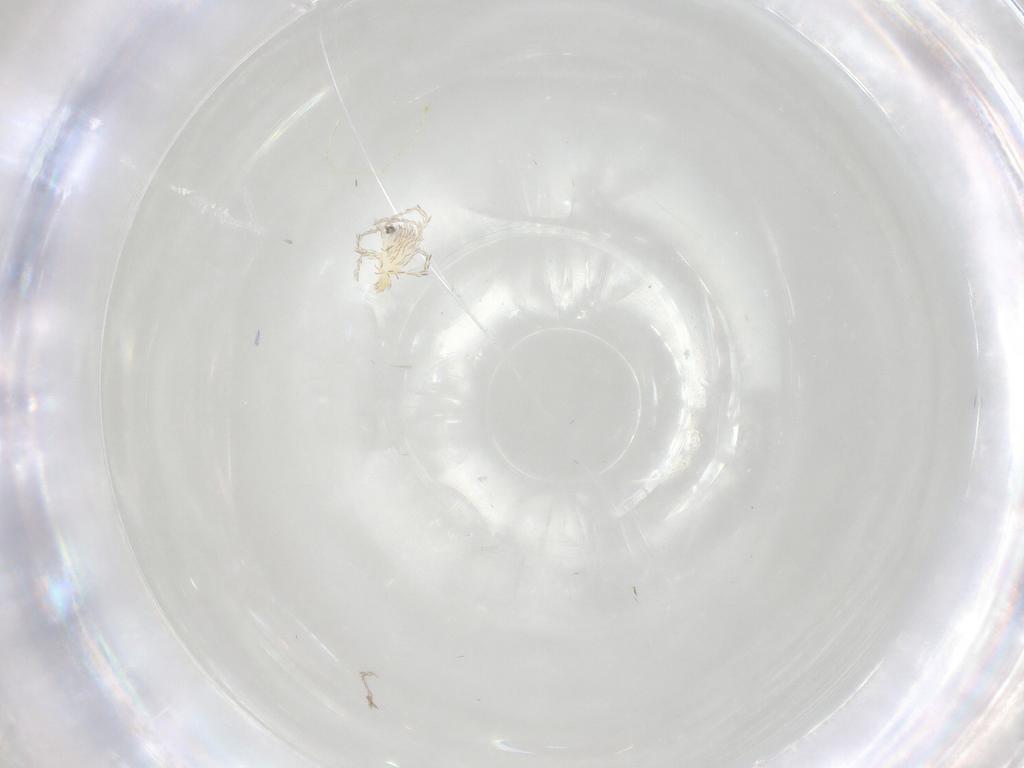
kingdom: Animalia
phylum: Arthropoda
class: Arachnida
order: Trombidiformes
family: Erythraeidae
